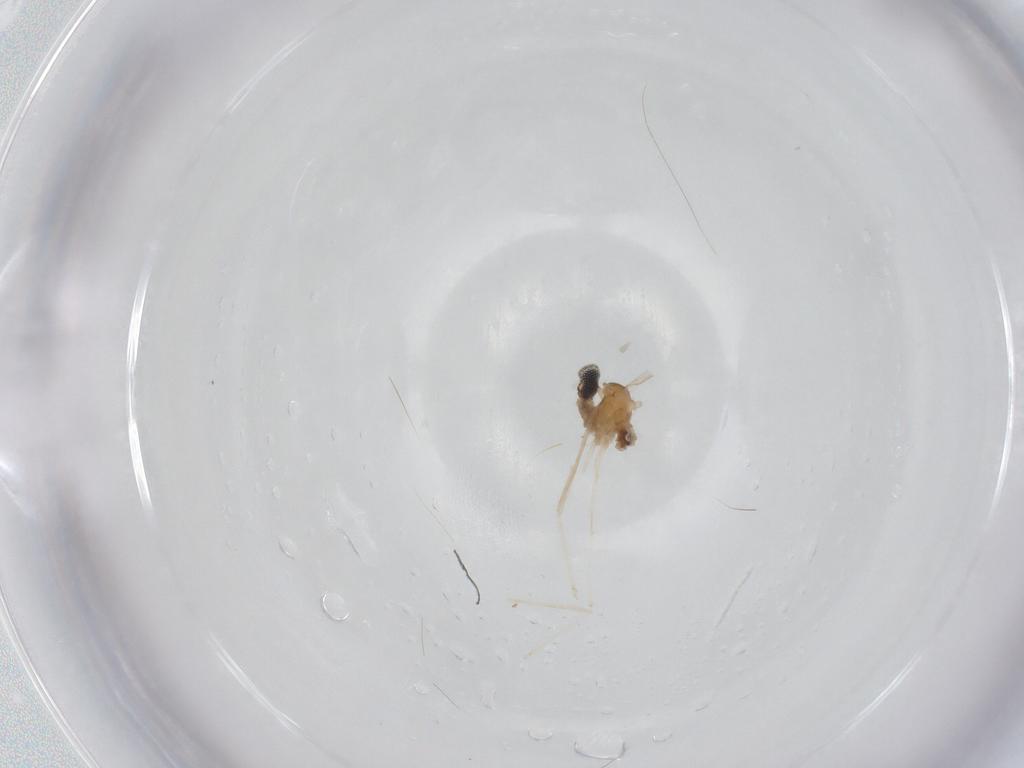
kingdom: Animalia
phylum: Arthropoda
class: Insecta
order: Diptera
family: Cecidomyiidae
